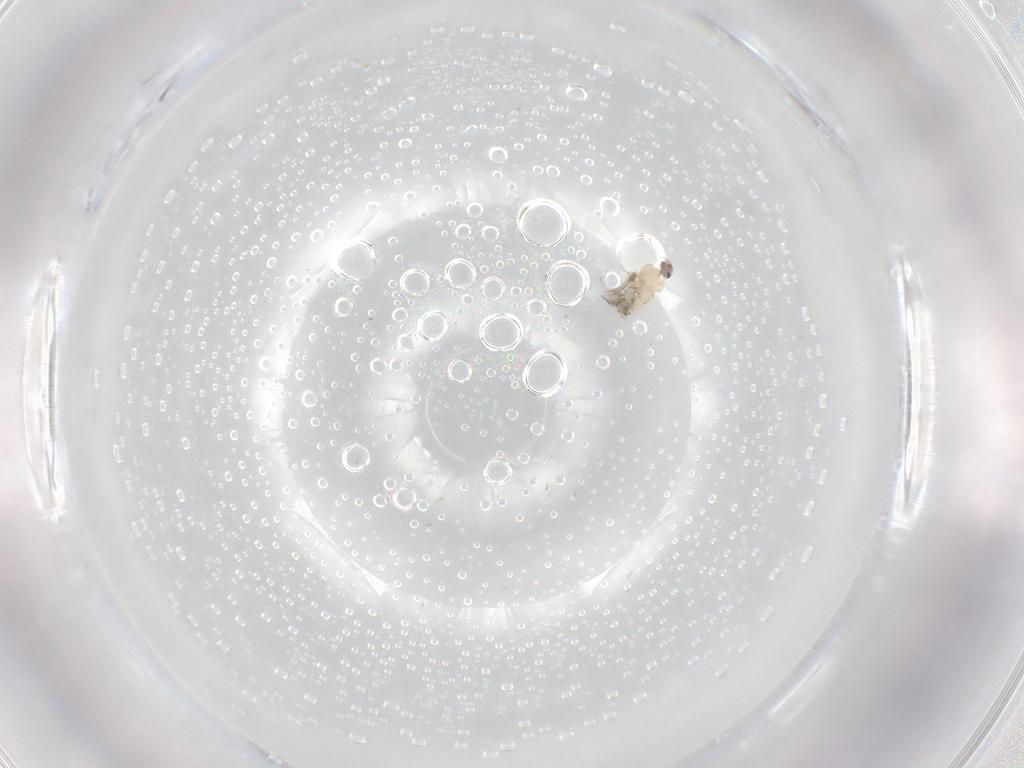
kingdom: Animalia
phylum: Arthropoda
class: Insecta
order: Diptera
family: Cecidomyiidae
